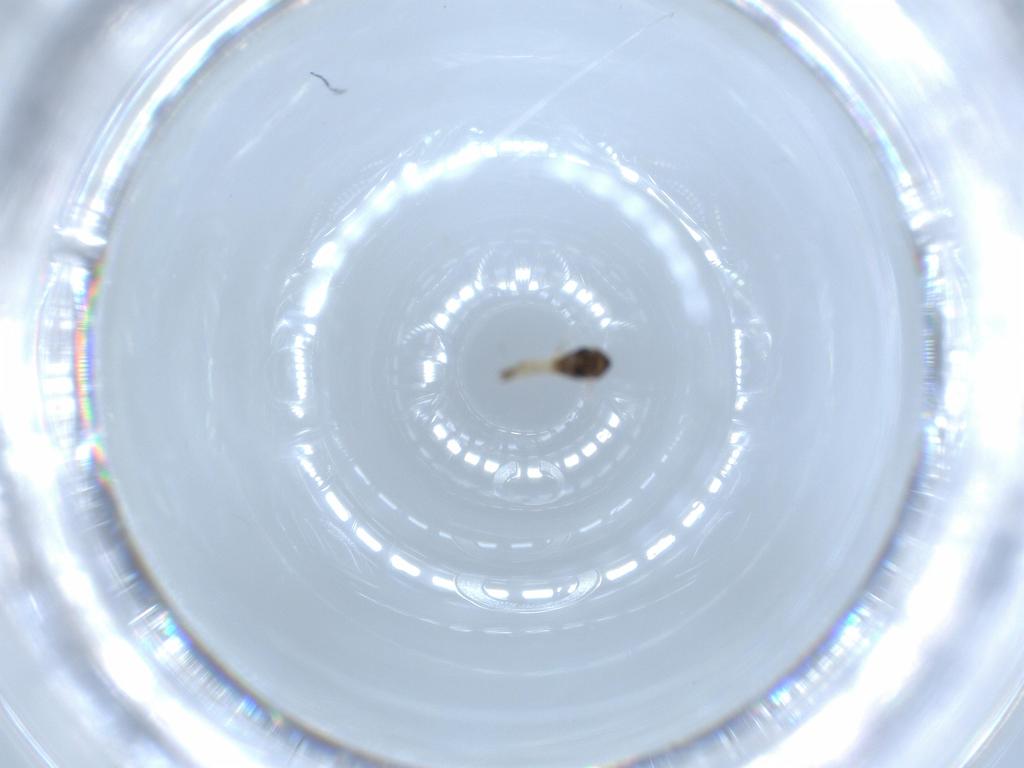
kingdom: Animalia
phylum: Arthropoda
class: Insecta
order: Diptera
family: Chironomidae
